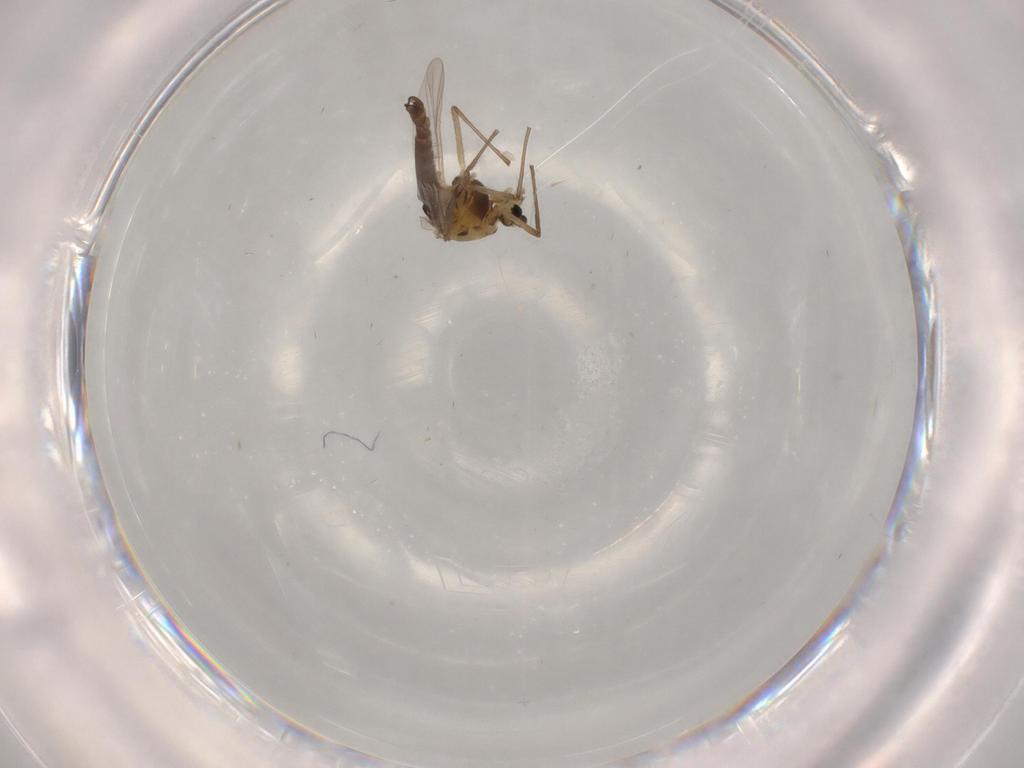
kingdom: Animalia
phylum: Arthropoda
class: Insecta
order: Diptera
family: Chironomidae
